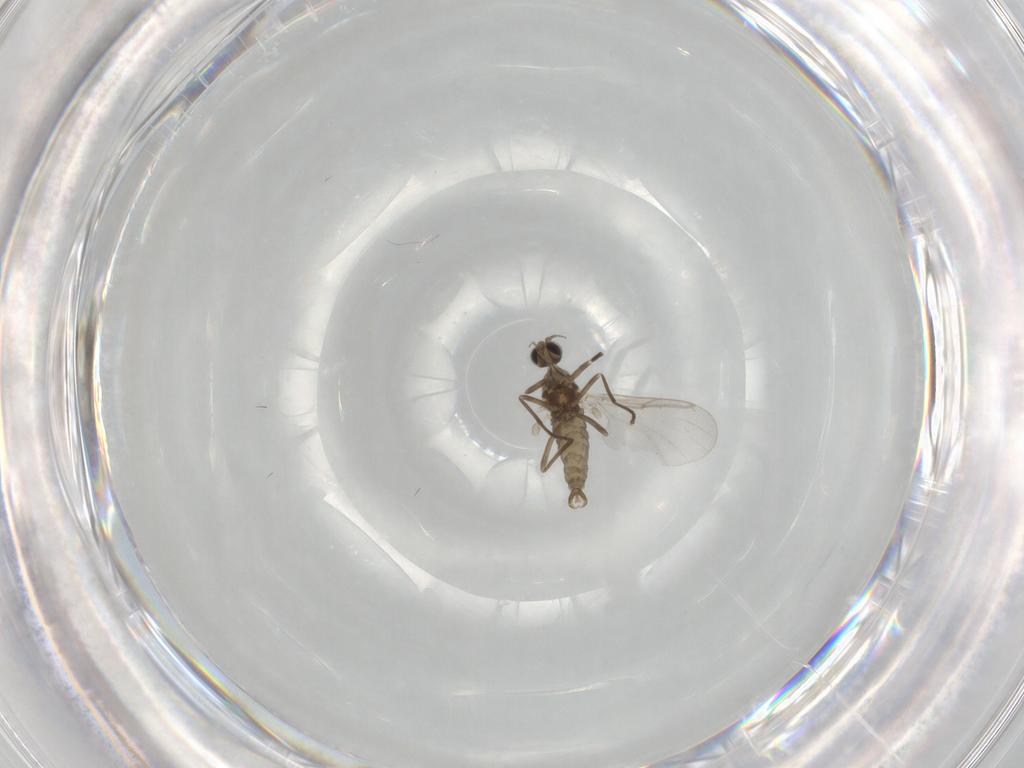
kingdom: Animalia
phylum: Arthropoda
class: Insecta
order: Diptera
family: Cecidomyiidae
